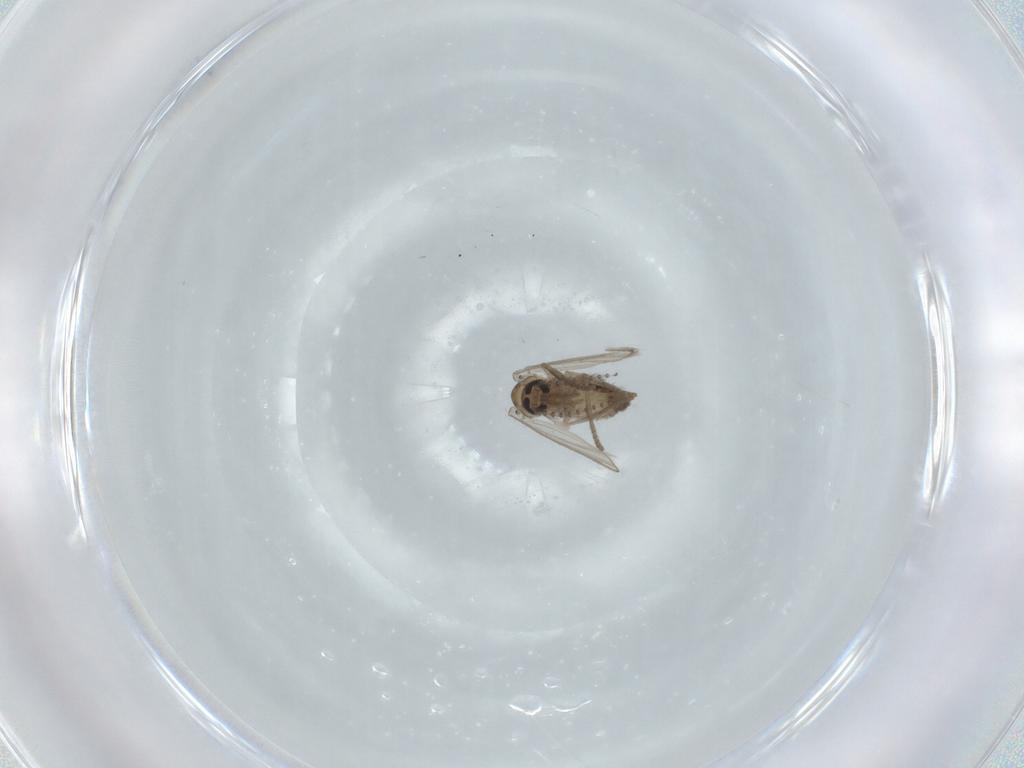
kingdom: Animalia
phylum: Arthropoda
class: Insecta
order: Diptera
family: Psychodidae
